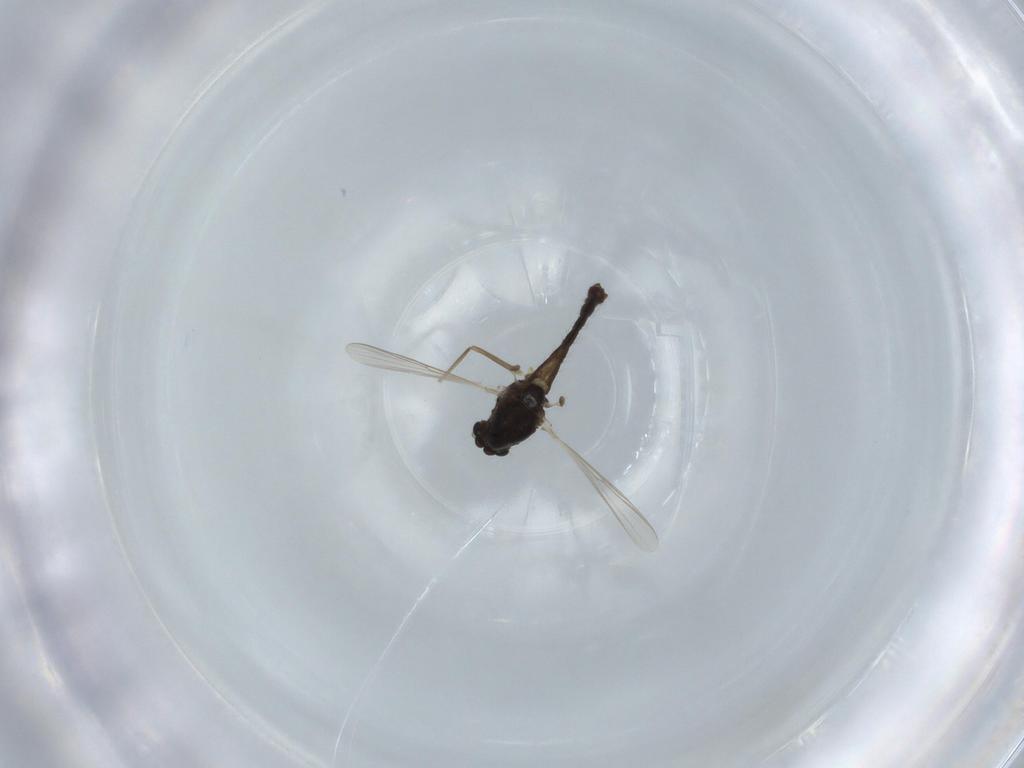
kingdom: Animalia
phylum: Arthropoda
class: Insecta
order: Diptera
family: Chironomidae
